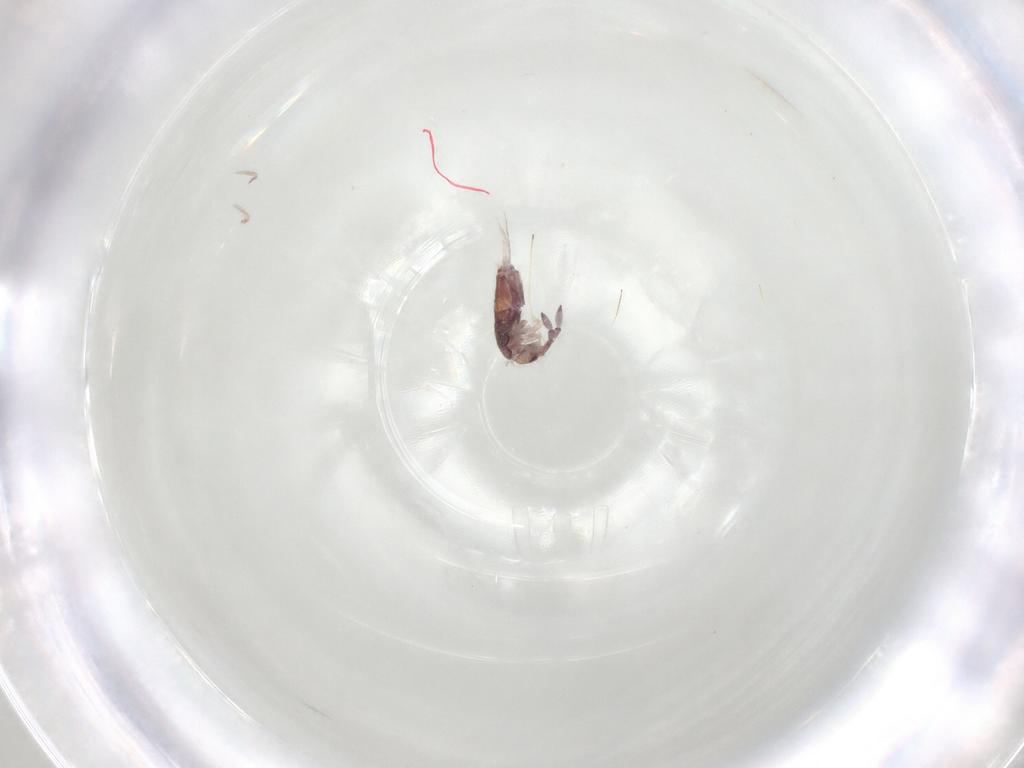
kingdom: Animalia
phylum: Arthropoda
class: Collembola
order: Entomobryomorpha
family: Entomobryidae
